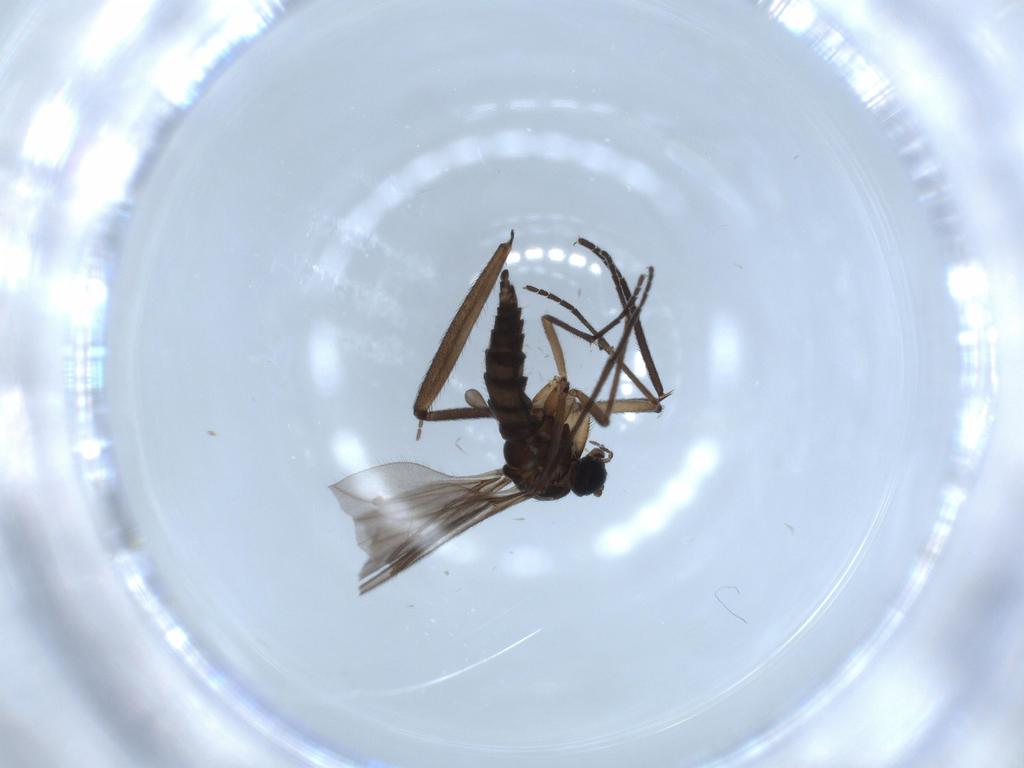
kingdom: Animalia
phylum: Arthropoda
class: Insecta
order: Diptera
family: Sciaridae
